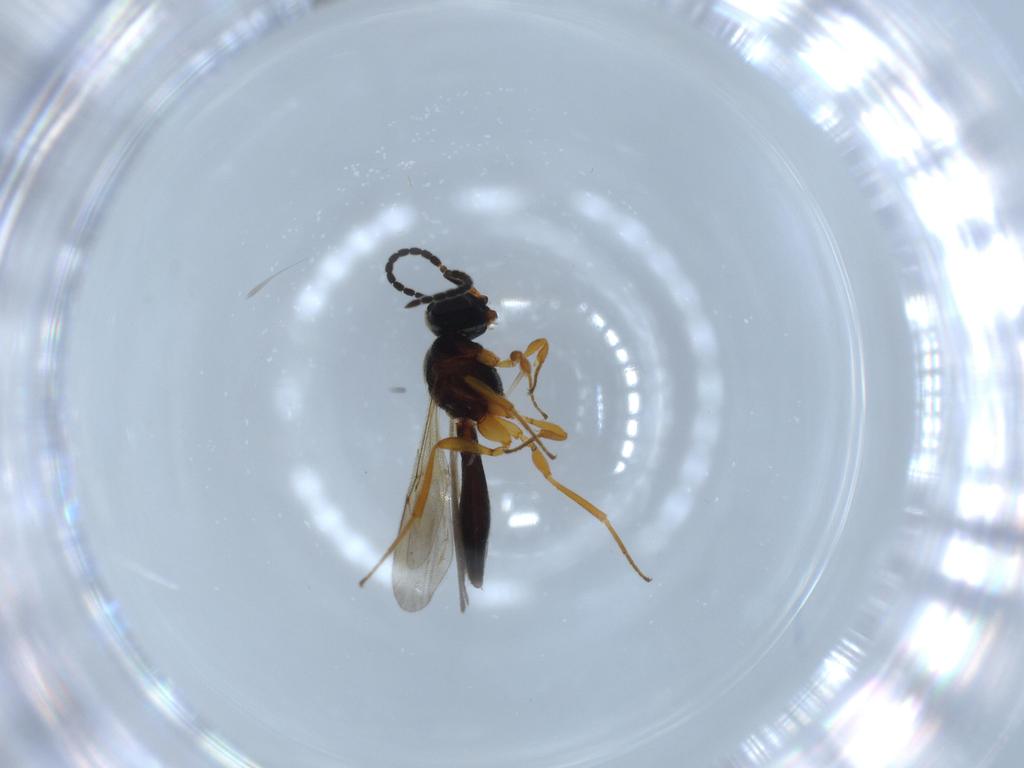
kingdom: Animalia
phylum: Arthropoda
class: Insecta
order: Hymenoptera
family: Scelionidae
